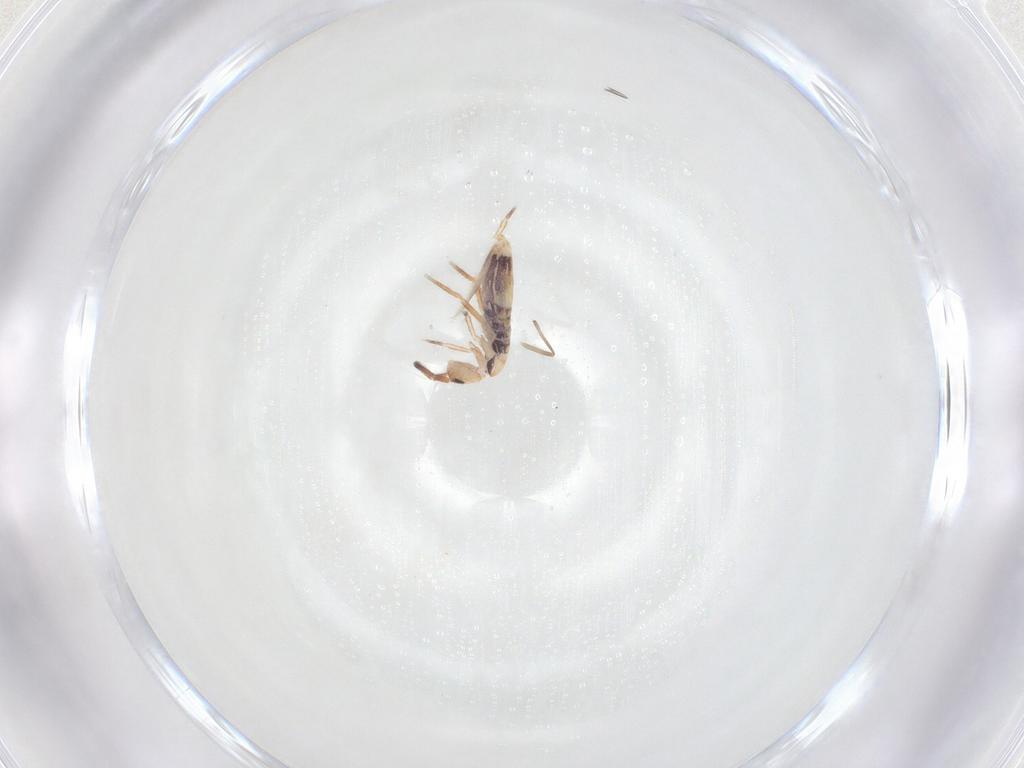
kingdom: Animalia
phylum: Arthropoda
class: Collembola
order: Entomobryomorpha
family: Entomobryidae
